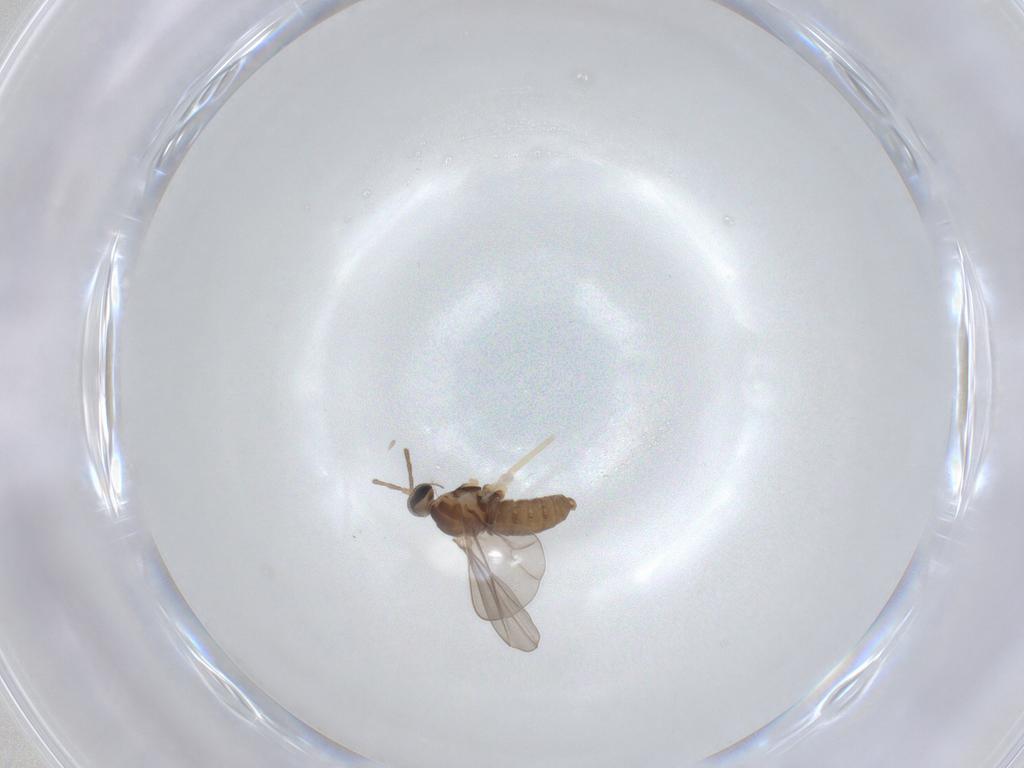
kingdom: Animalia
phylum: Arthropoda
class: Insecta
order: Diptera
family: Cecidomyiidae
